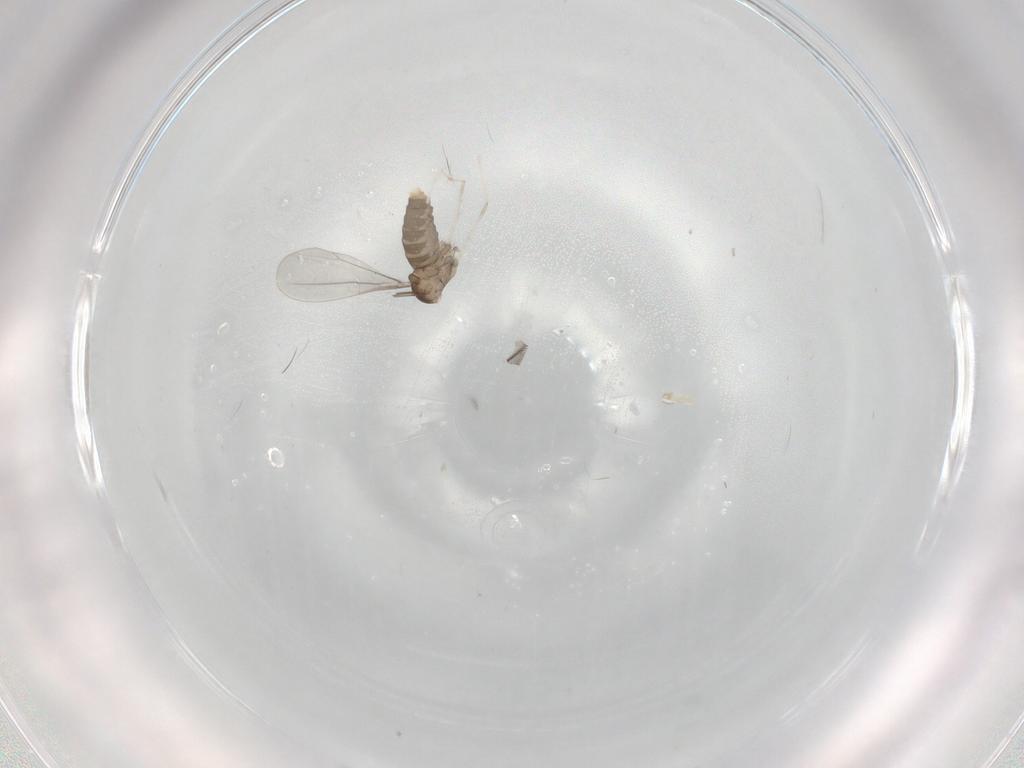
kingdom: Animalia
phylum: Arthropoda
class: Insecta
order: Diptera
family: Cecidomyiidae
